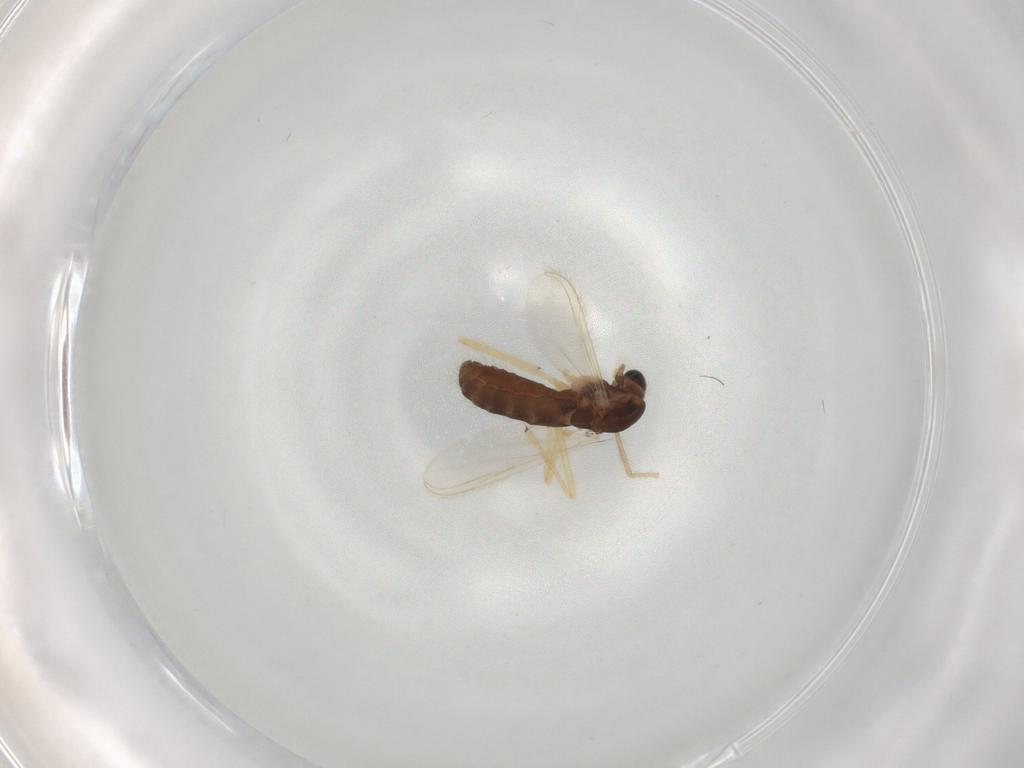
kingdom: Animalia
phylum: Arthropoda
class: Insecta
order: Diptera
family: Chironomidae
